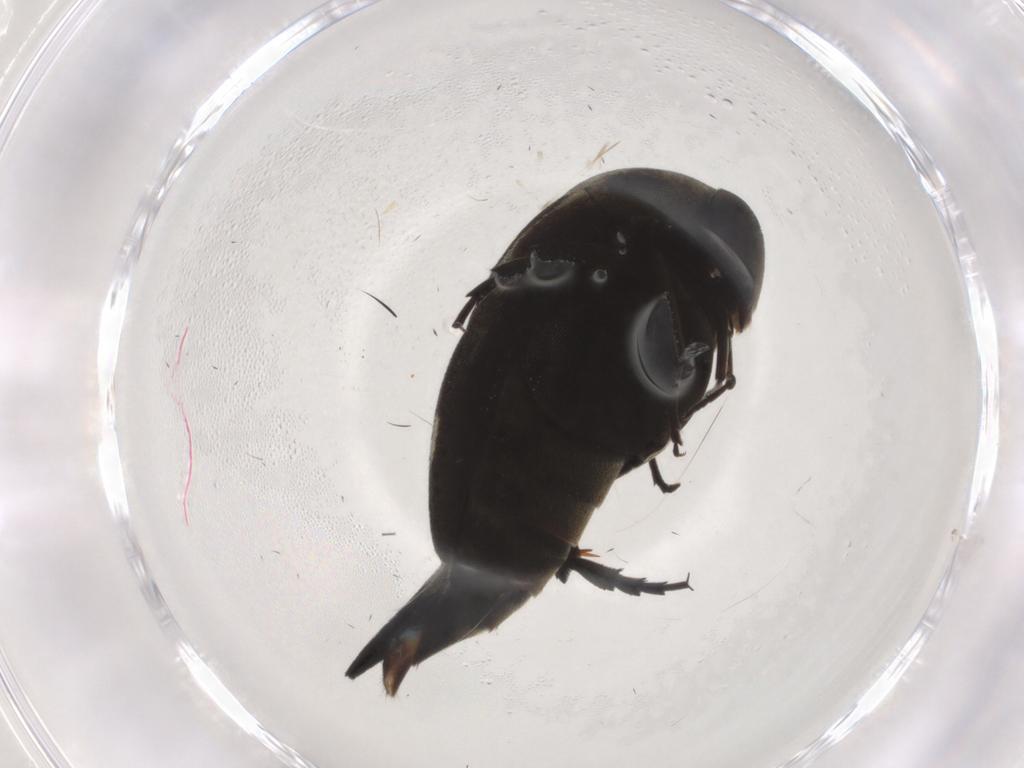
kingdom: Animalia
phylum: Arthropoda
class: Insecta
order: Coleoptera
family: Mordellidae
